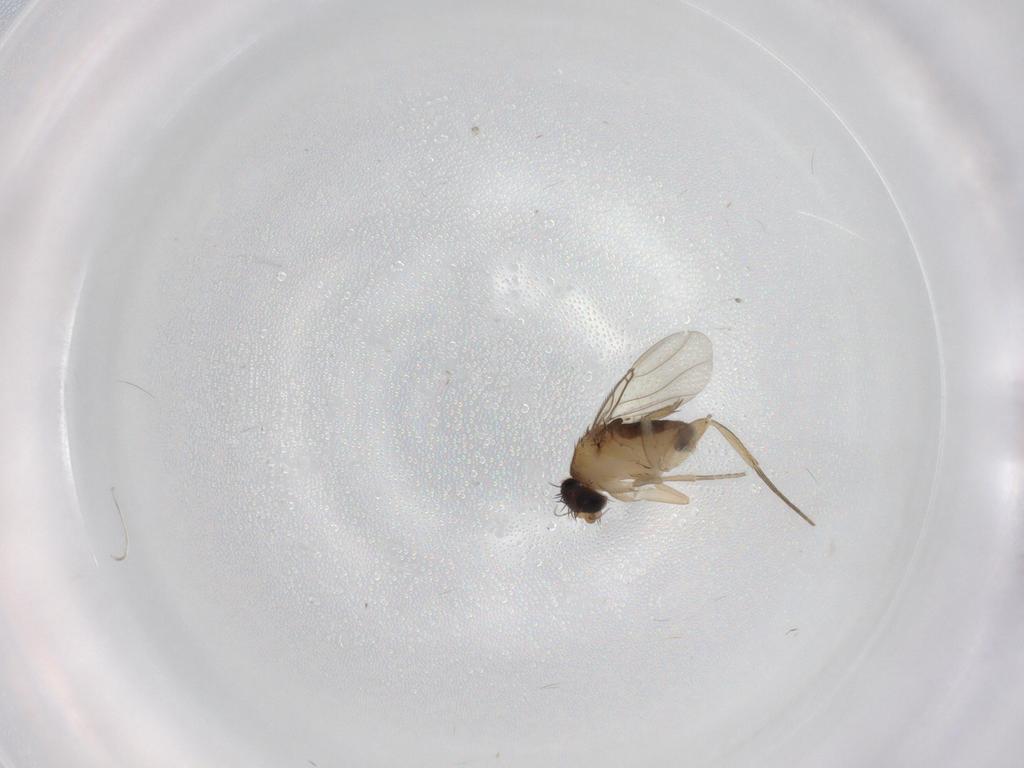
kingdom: Animalia
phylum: Arthropoda
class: Insecta
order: Diptera
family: Phoridae
